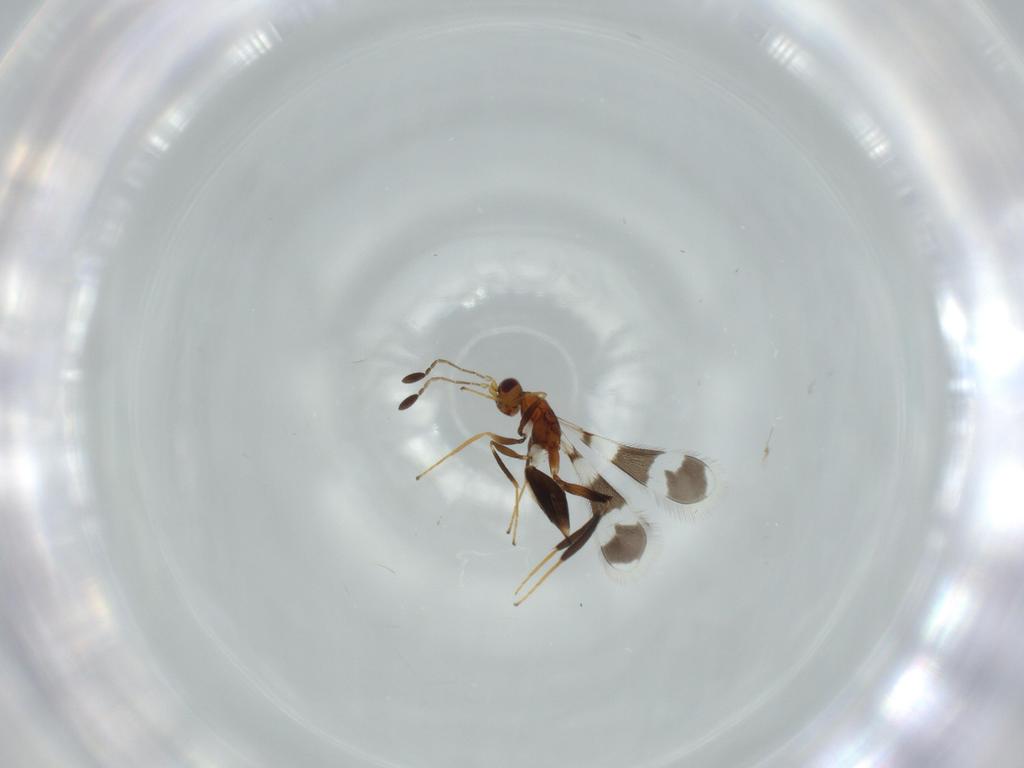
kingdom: Animalia
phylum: Arthropoda
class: Insecta
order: Hymenoptera
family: Mymaridae
